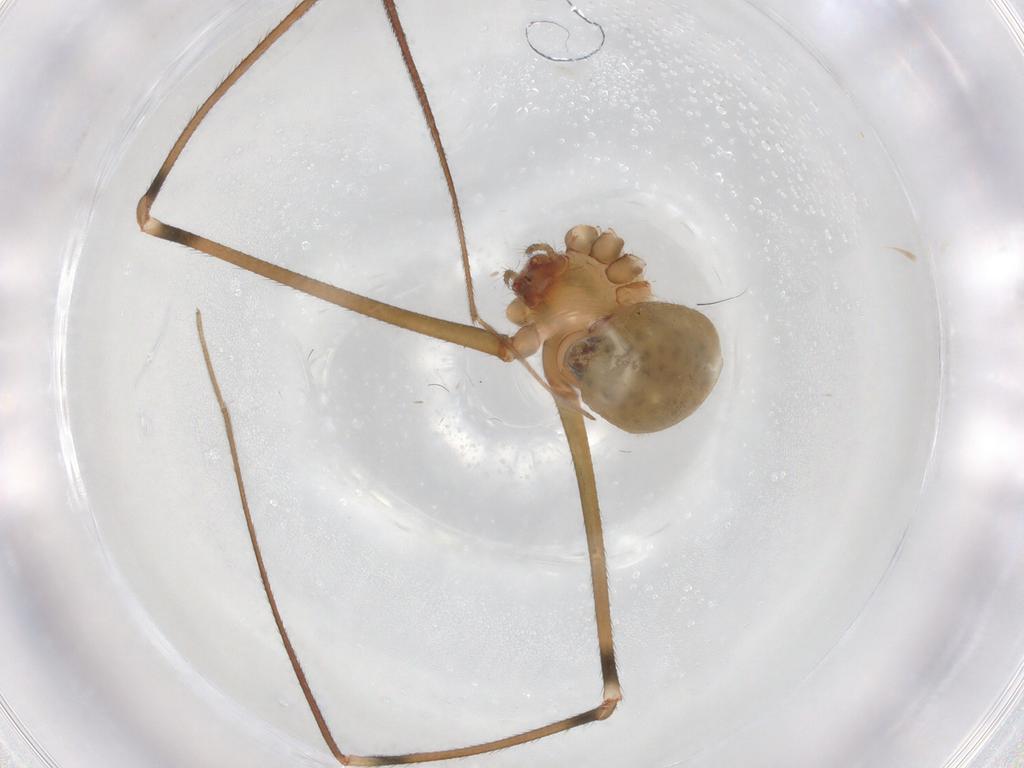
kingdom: Animalia
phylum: Arthropoda
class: Arachnida
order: Araneae
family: Pholcidae
